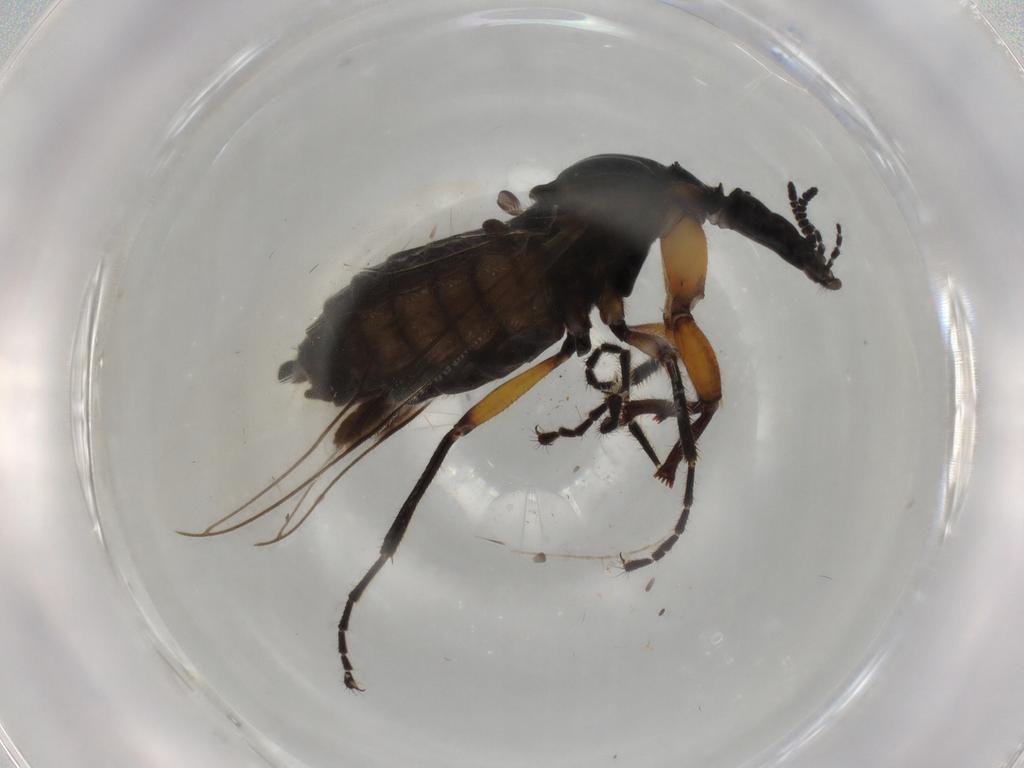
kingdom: Animalia
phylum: Arthropoda
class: Insecta
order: Diptera
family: Bibionidae
